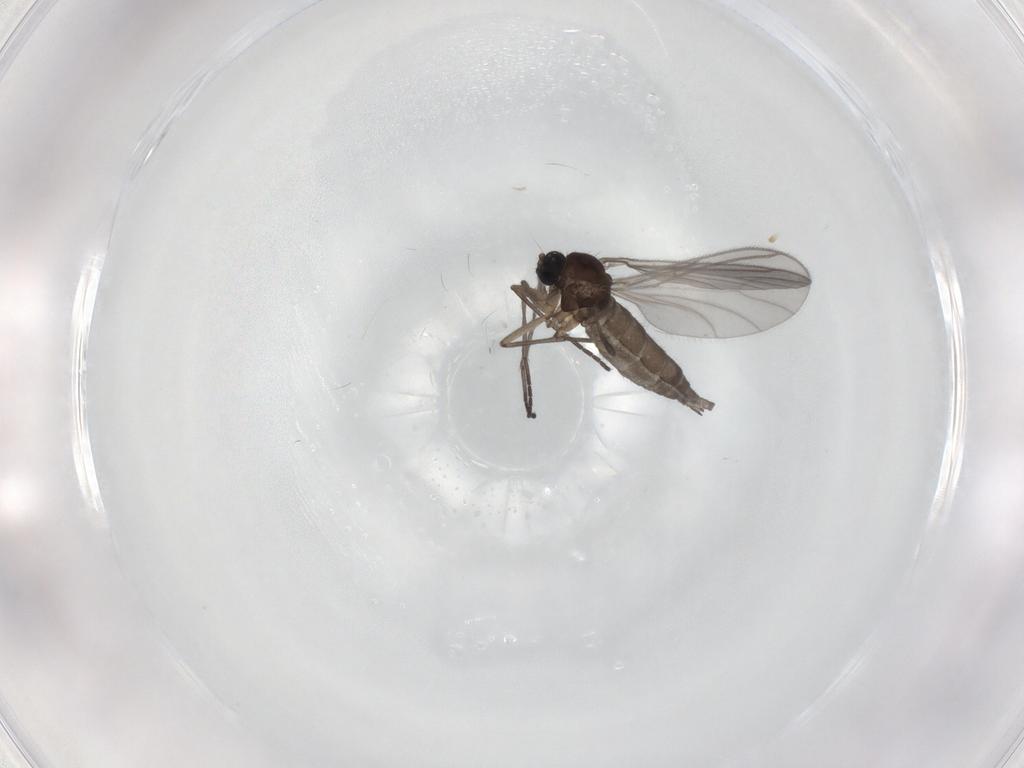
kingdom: Animalia
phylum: Arthropoda
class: Insecta
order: Diptera
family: Sciaridae
